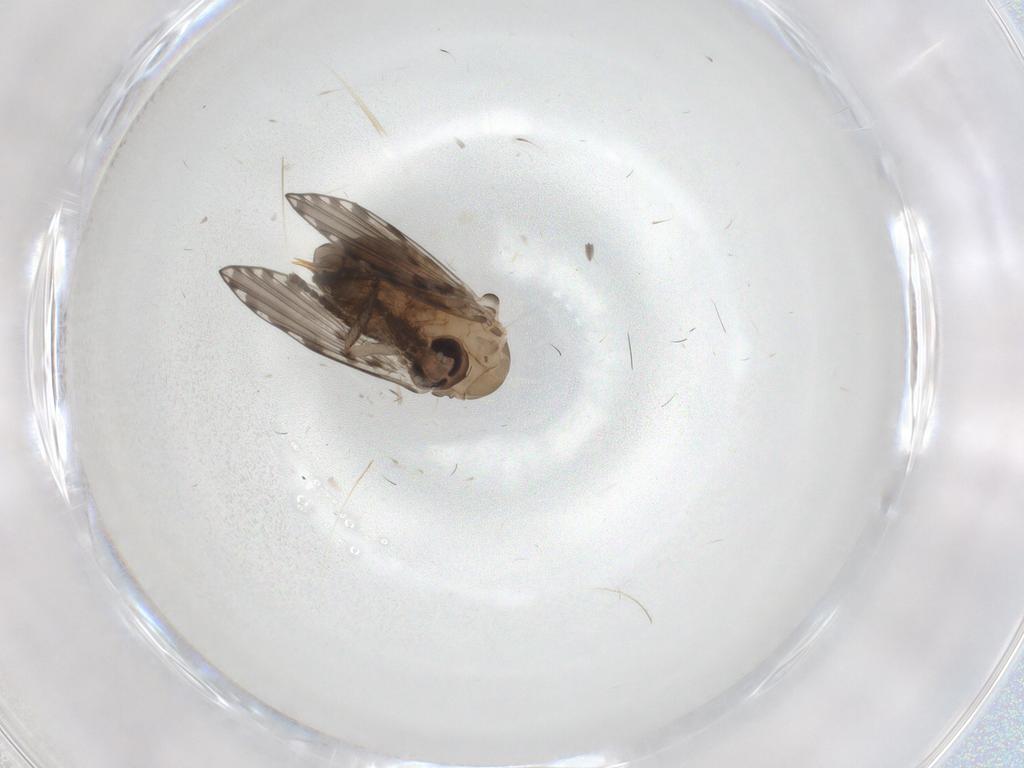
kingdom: Animalia
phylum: Arthropoda
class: Insecta
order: Diptera
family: Psychodidae
